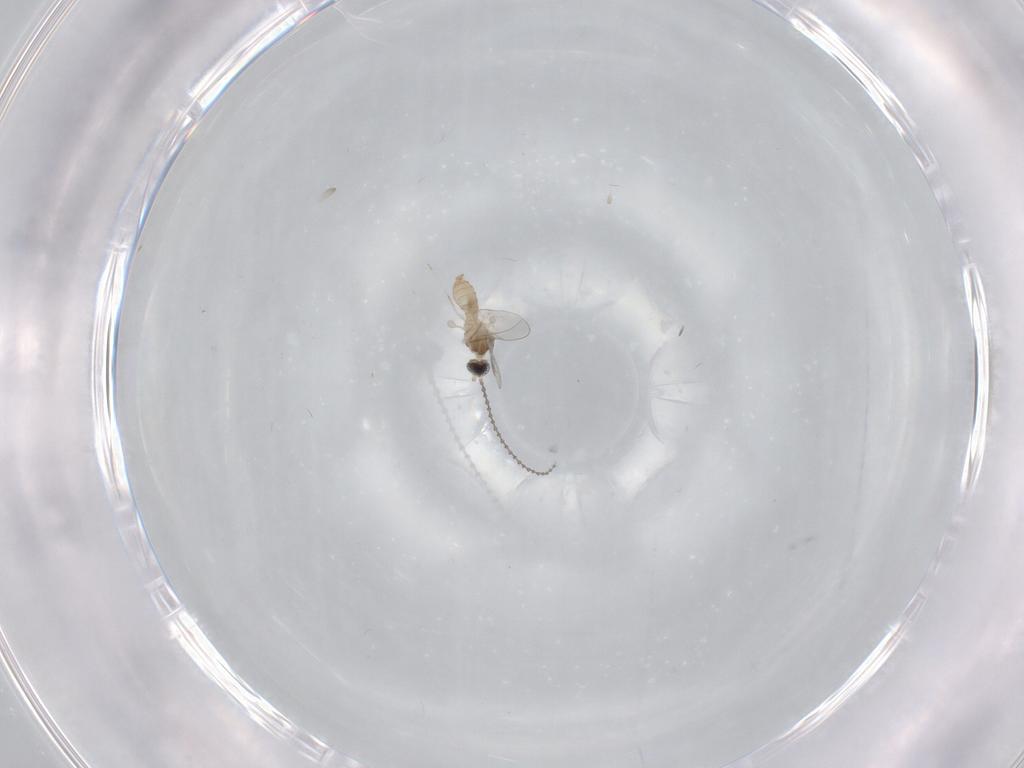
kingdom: Animalia
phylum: Arthropoda
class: Insecta
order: Diptera
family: Cecidomyiidae
